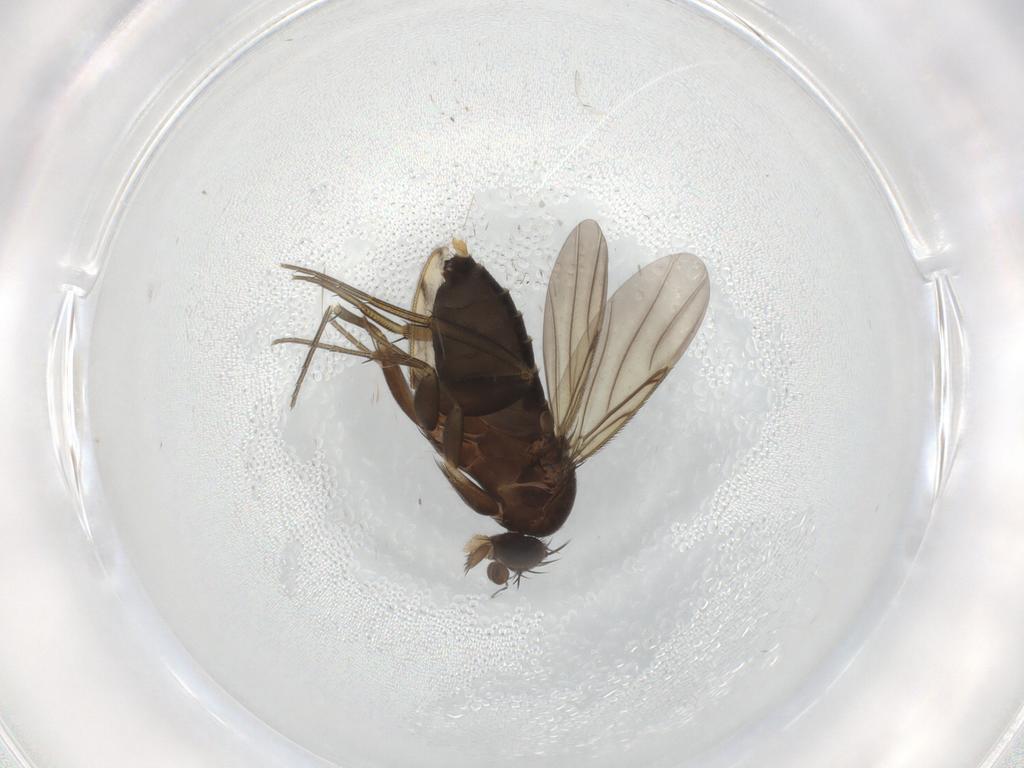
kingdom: Animalia
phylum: Arthropoda
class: Insecta
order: Diptera
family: Phoridae
